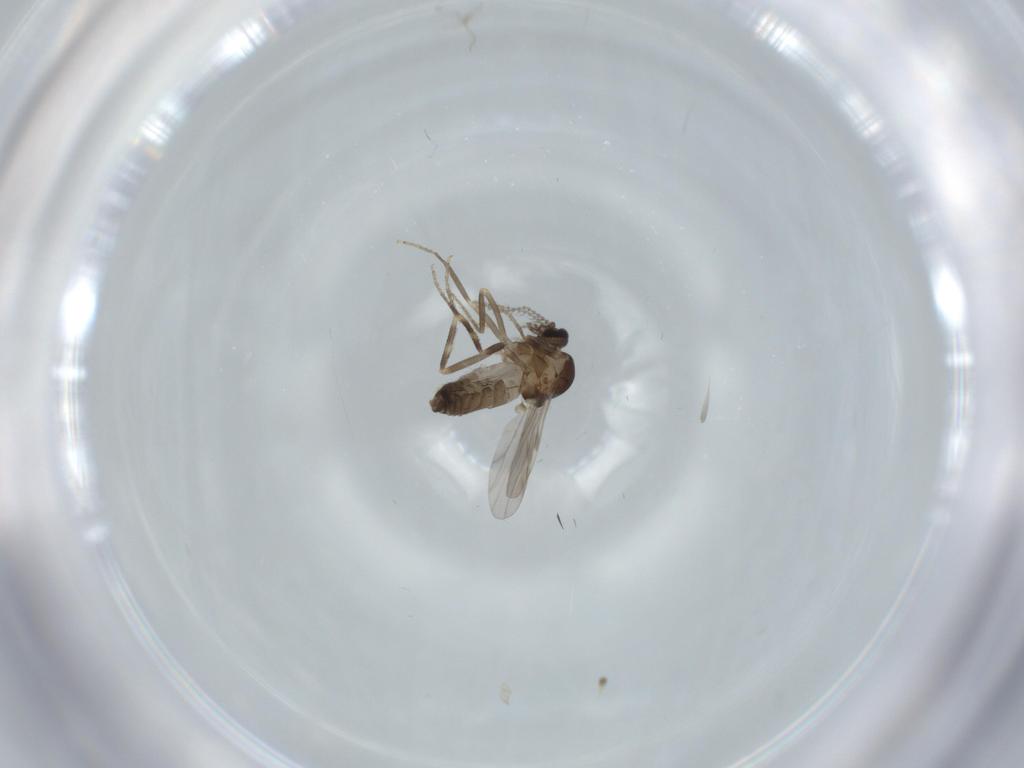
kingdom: Animalia
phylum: Arthropoda
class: Insecta
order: Diptera
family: Ceratopogonidae
